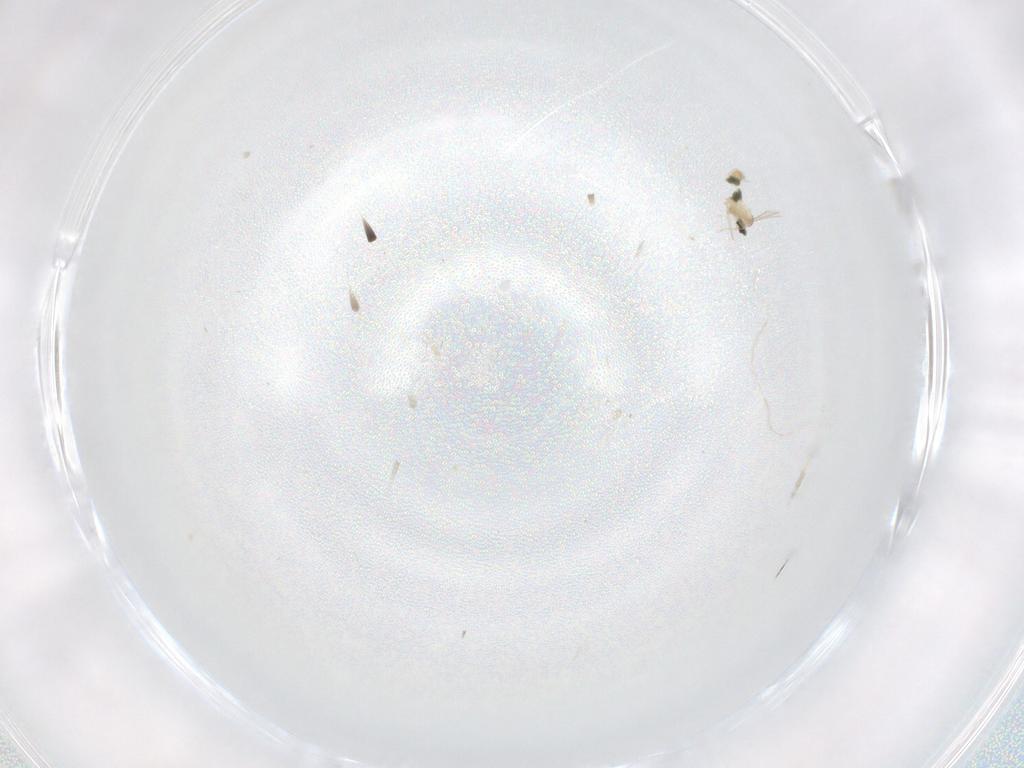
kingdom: Animalia
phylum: Arthropoda
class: Insecta
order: Diptera
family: Cecidomyiidae
